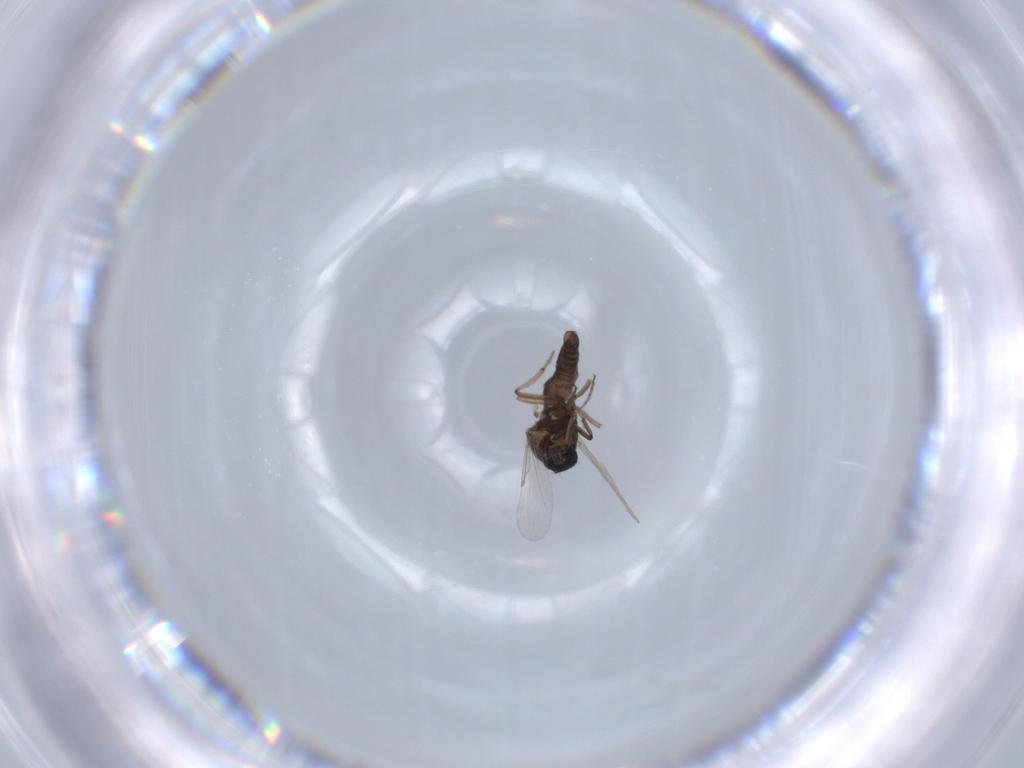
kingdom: Animalia
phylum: Arthropoda
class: Insecta
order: Diptera
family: Ceratopogonidae
